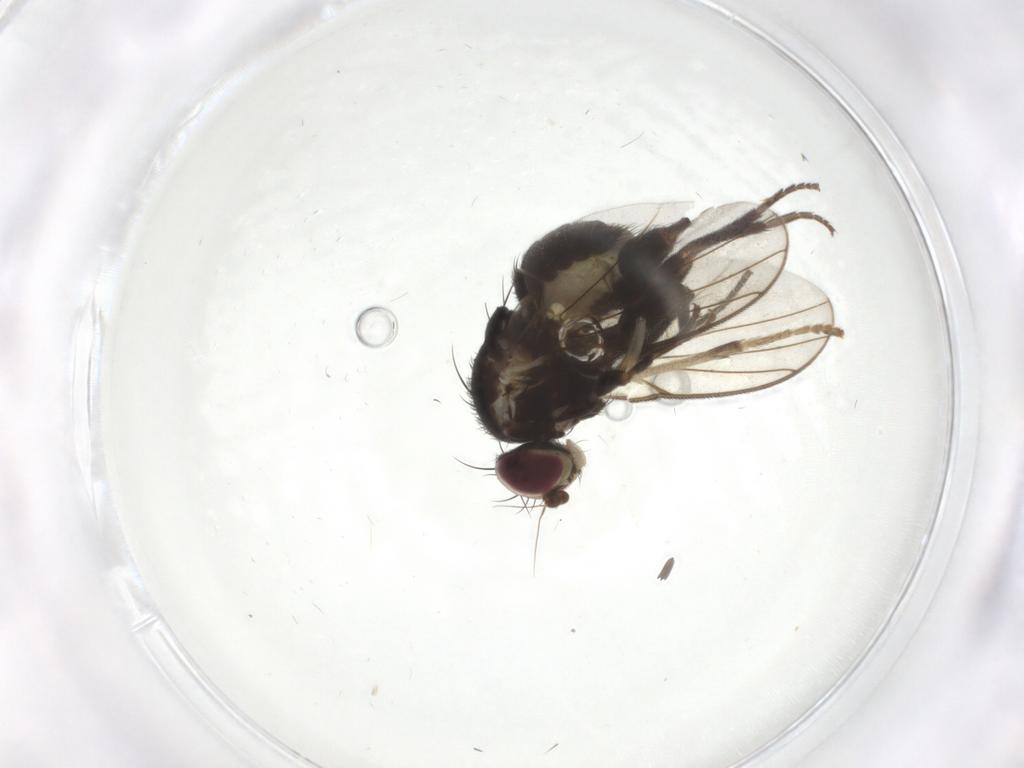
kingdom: Animalia
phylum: Arthropoda
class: Insecta
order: Diptera
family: Agromyzidae
